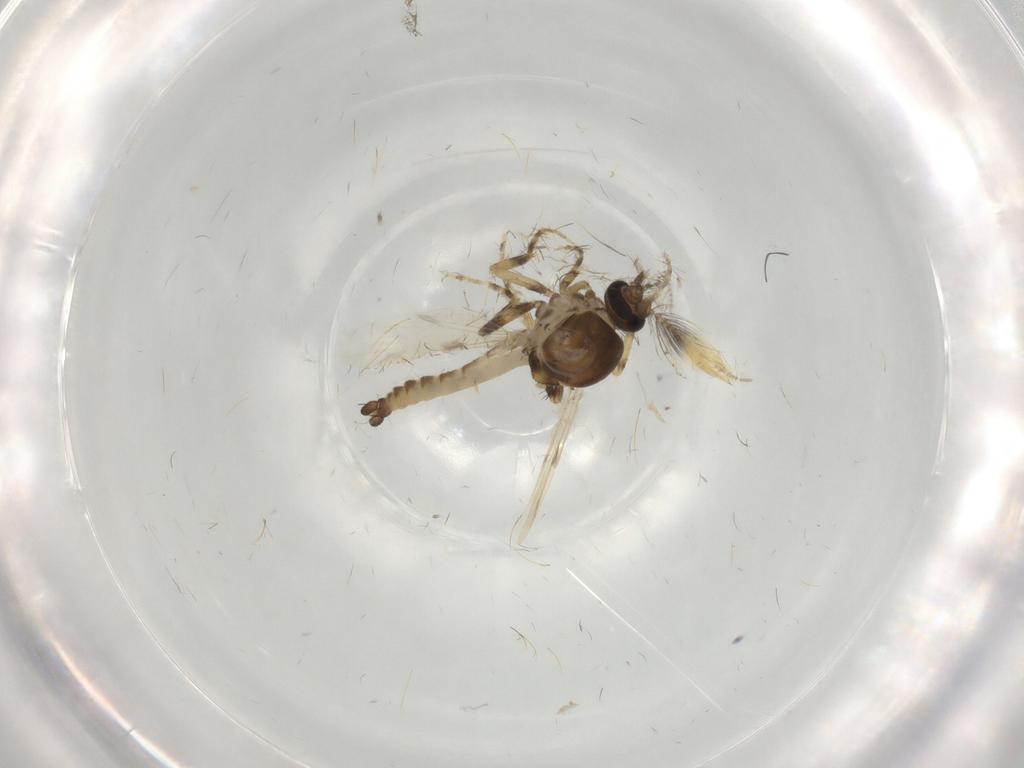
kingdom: Animalia
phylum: Arthropoda
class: Insecta
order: Diptera
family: Ceratopogonidae
